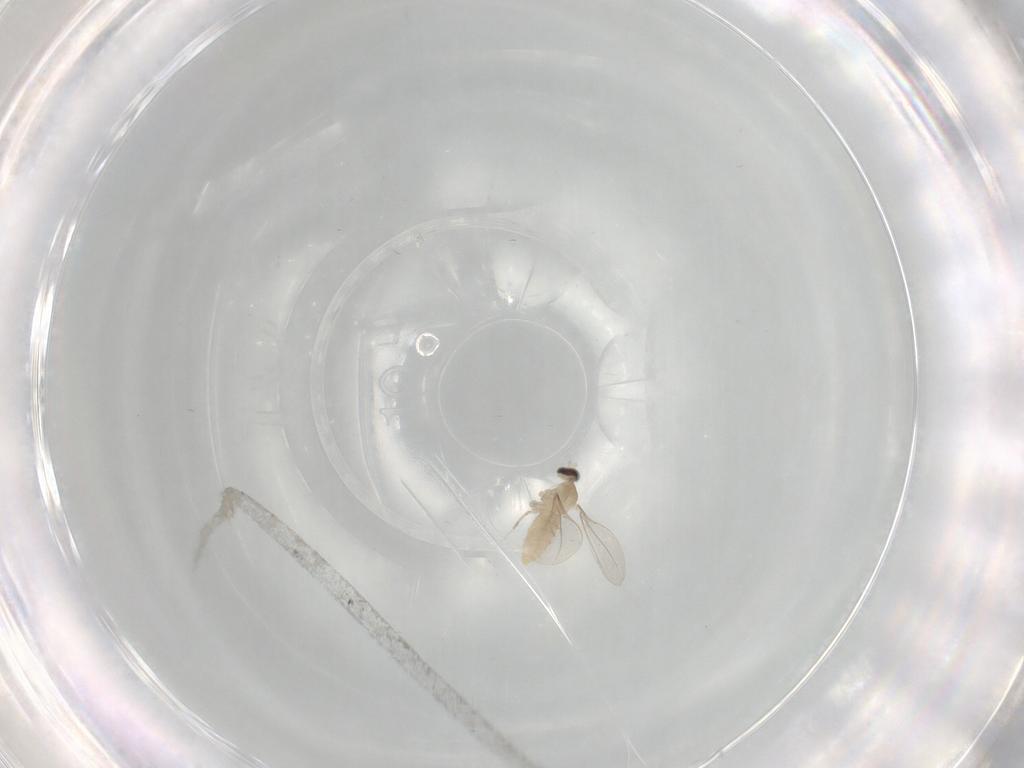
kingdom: Animalia
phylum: Arthropoda
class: Insecta
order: Diptera
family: Cecidomyiidae
